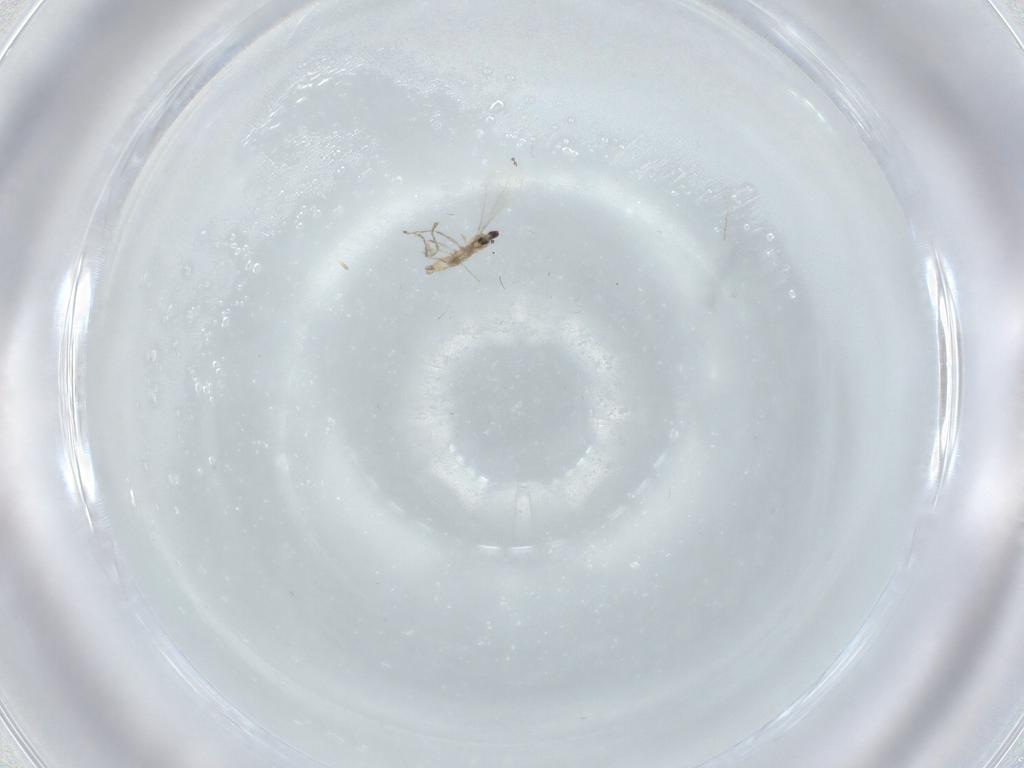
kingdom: Animalia
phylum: Arthropoda
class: Insecta
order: Diptera
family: Cecidomyiidae
